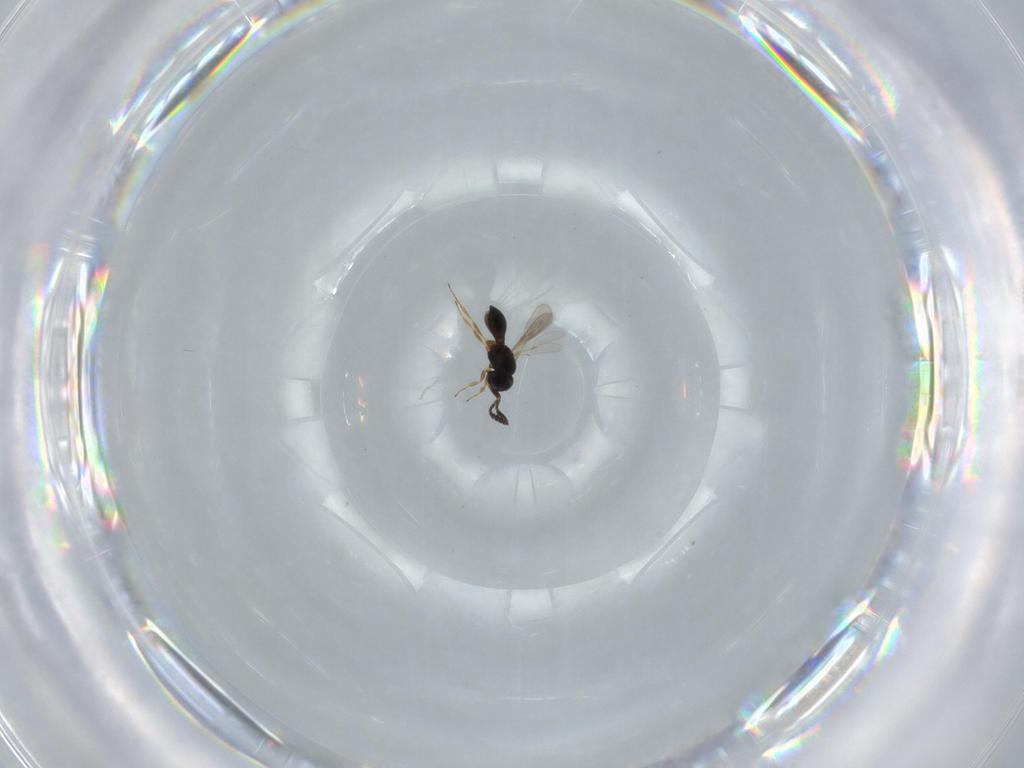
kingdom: Animalia
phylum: Arthropoda
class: Insecta
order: Hymenoptera
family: Scelionidae
